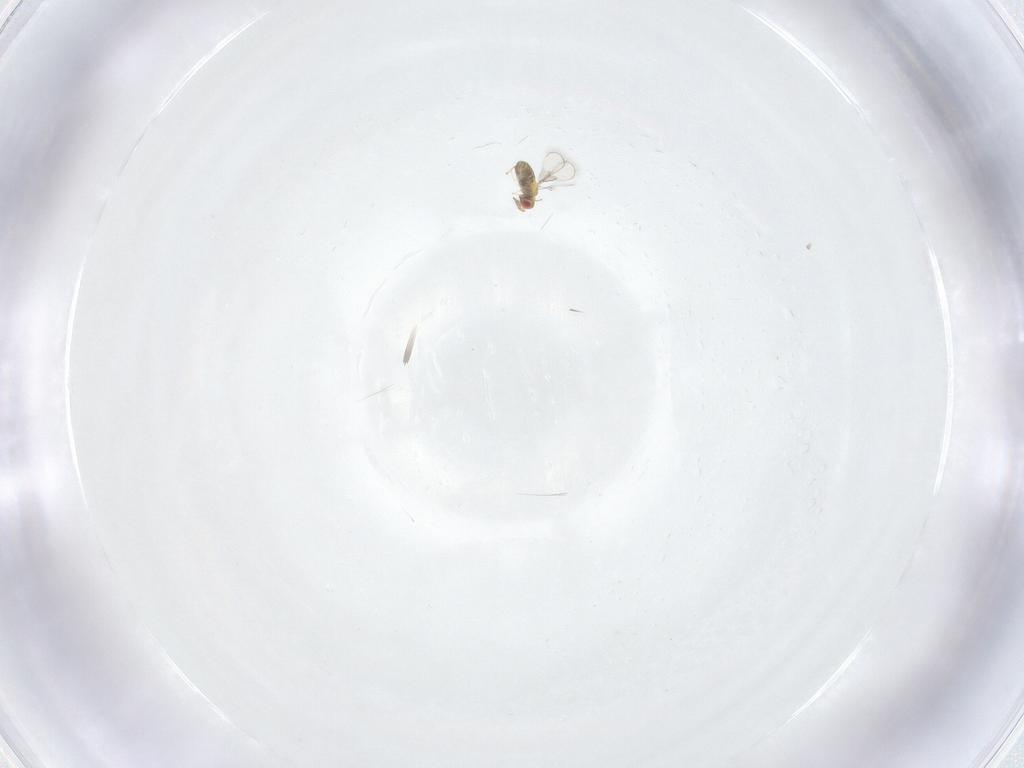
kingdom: Animalia
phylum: Arthropoda
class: Insecta
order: Hymenoptera
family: Trichogrammatidae
